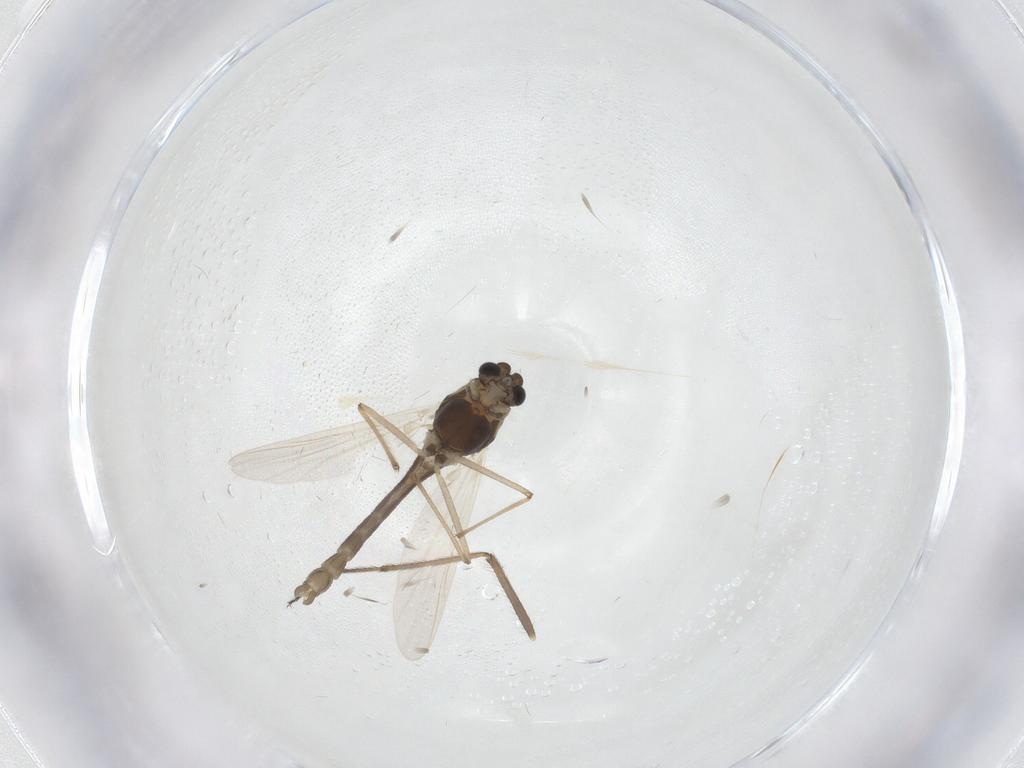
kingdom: Animalia
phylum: Arthropoda
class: Insecta
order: Diptera
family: Chironomidae
